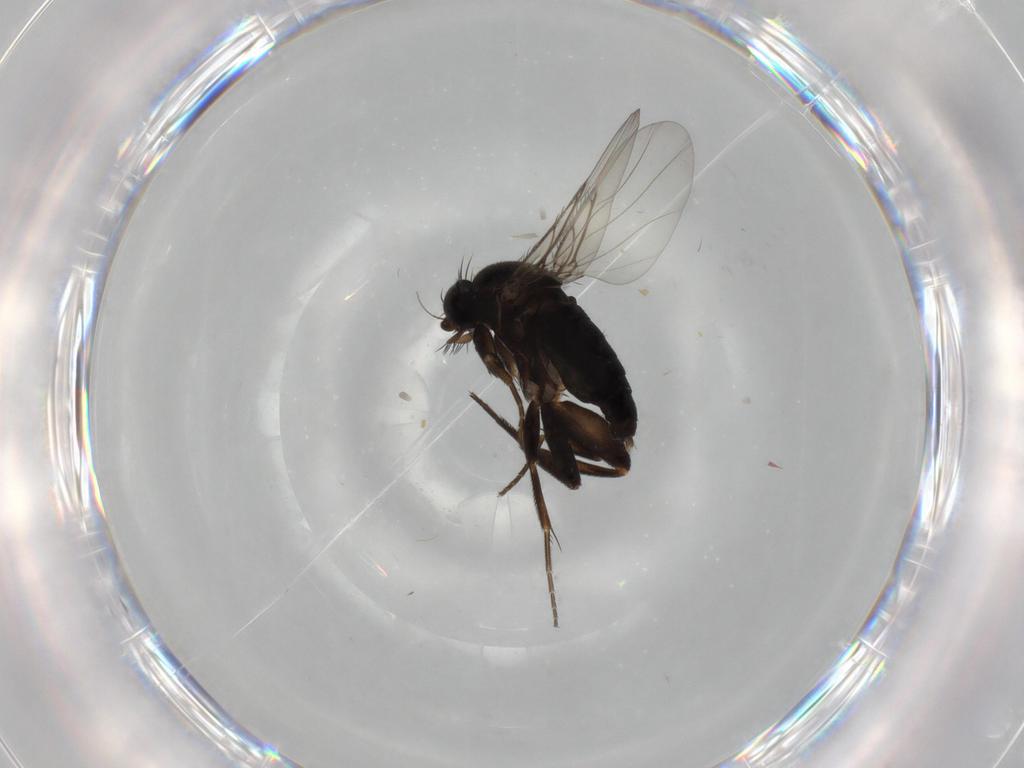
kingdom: Animalia
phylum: Arthropoda
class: Insecta
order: Diptera
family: Phoridae
